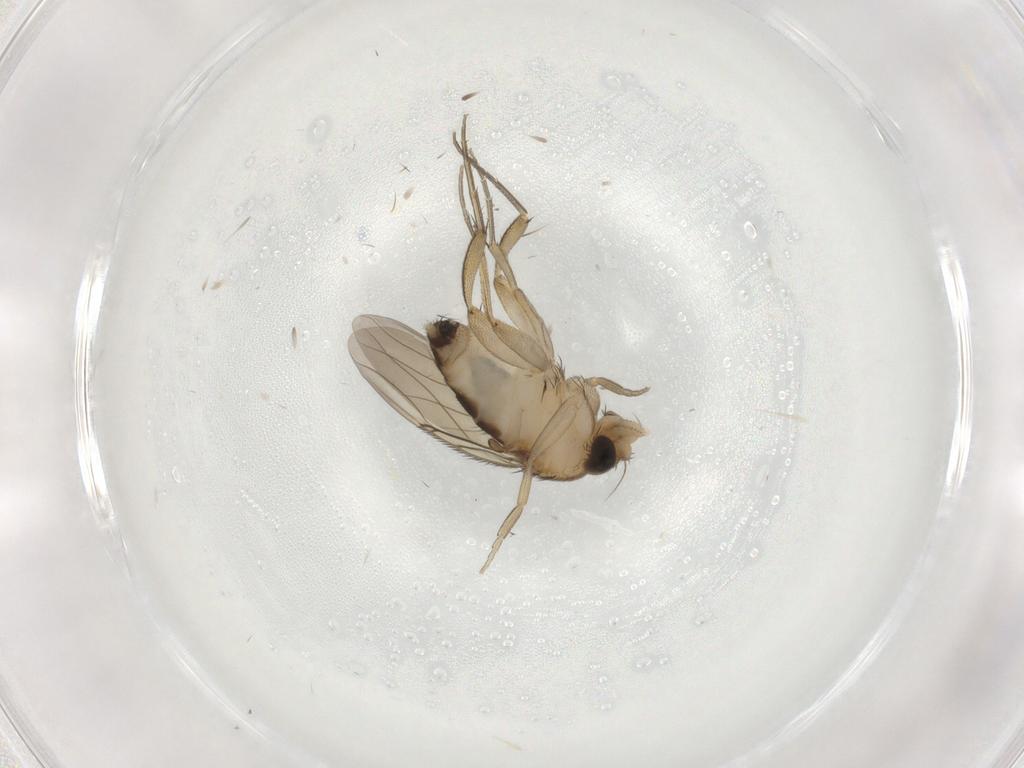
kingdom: Animalia
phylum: Arthropoda
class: Insecta
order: Diptera
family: Phoridae
